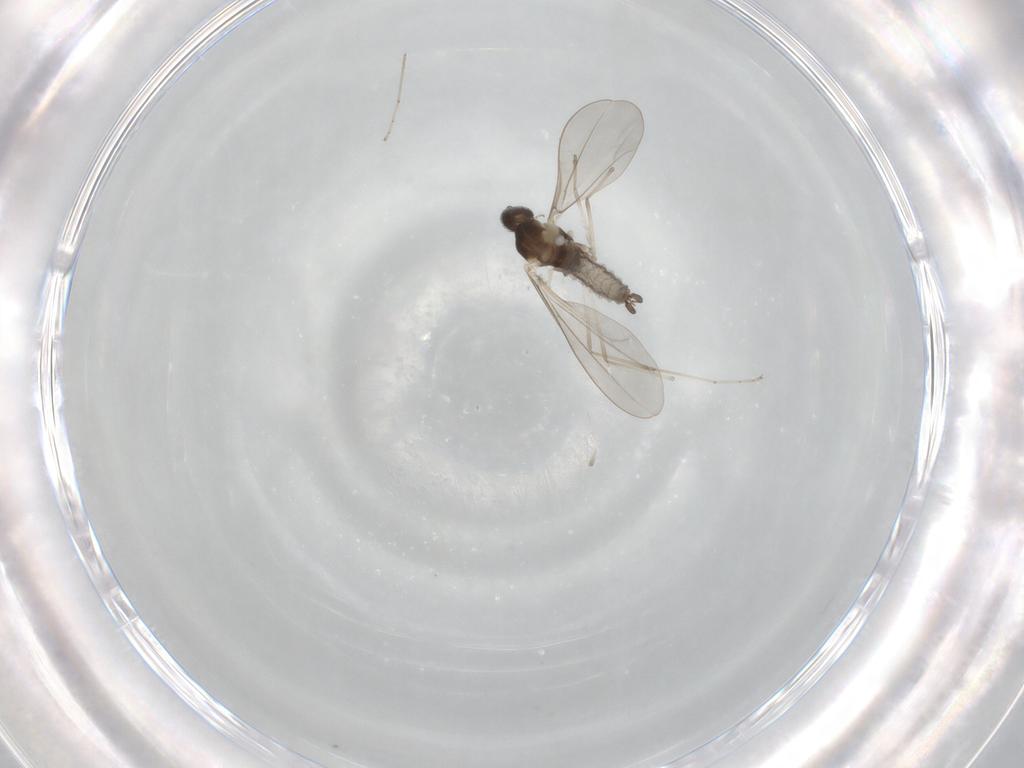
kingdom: Animalia
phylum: Arthropoda
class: Insecta
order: Diptera
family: Cecidomyiidae
